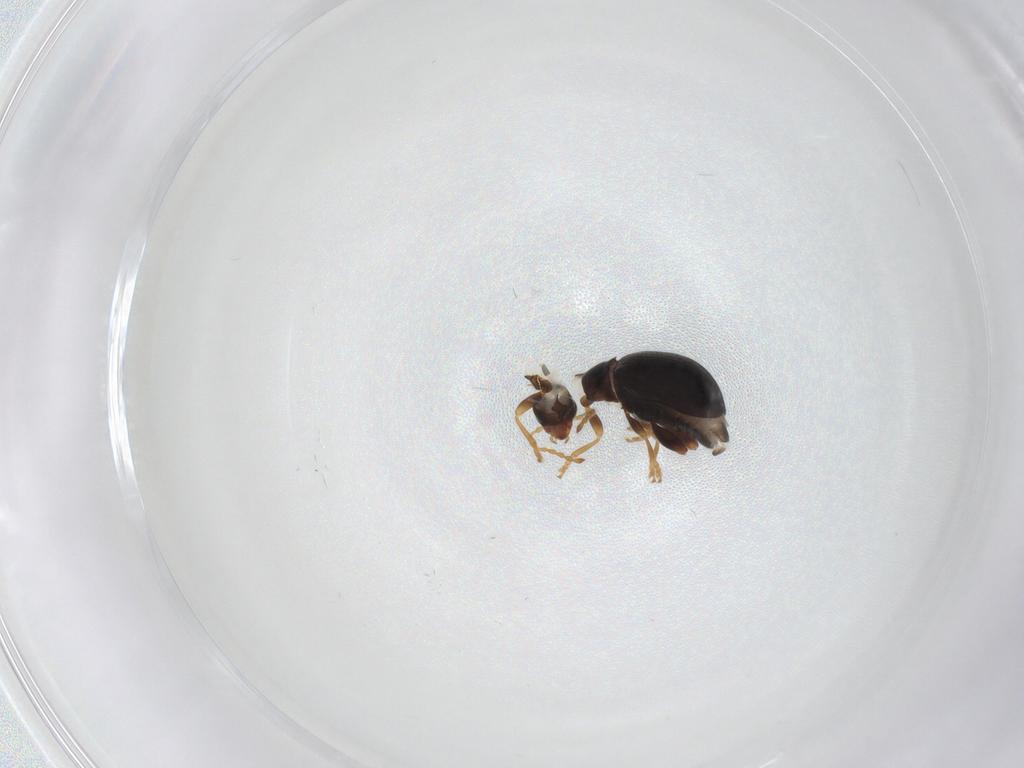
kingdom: Animalia
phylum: Arthropoda
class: Insecta
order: Coleoptera
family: Chrysomelidae
